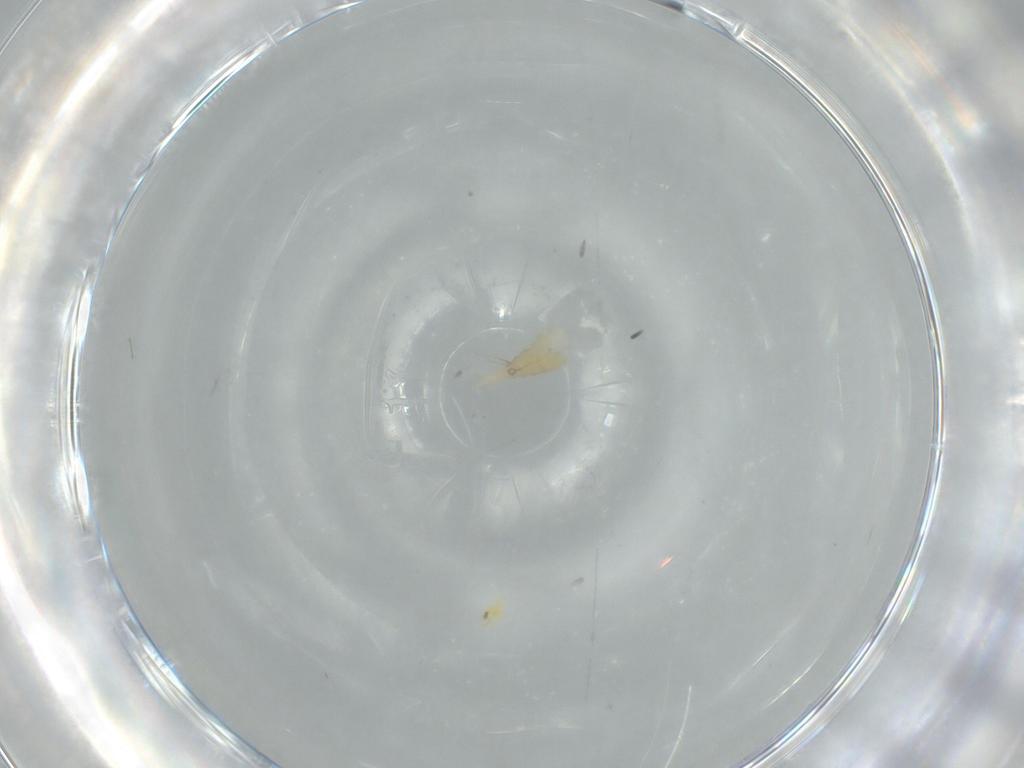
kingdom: Animalia
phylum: Arthropoda
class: Insecta
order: Diptera
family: Cecidomyiidae
